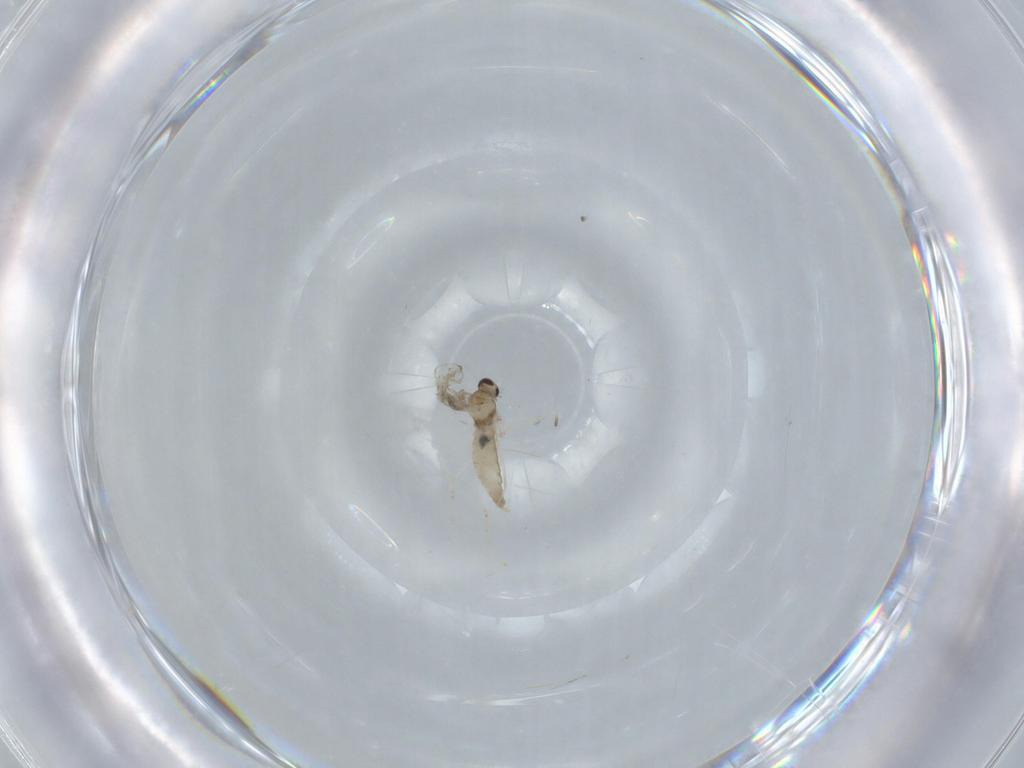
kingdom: Animalia
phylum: Arthropoda
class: Insecta
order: Diptera
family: Cecidomyiidae
